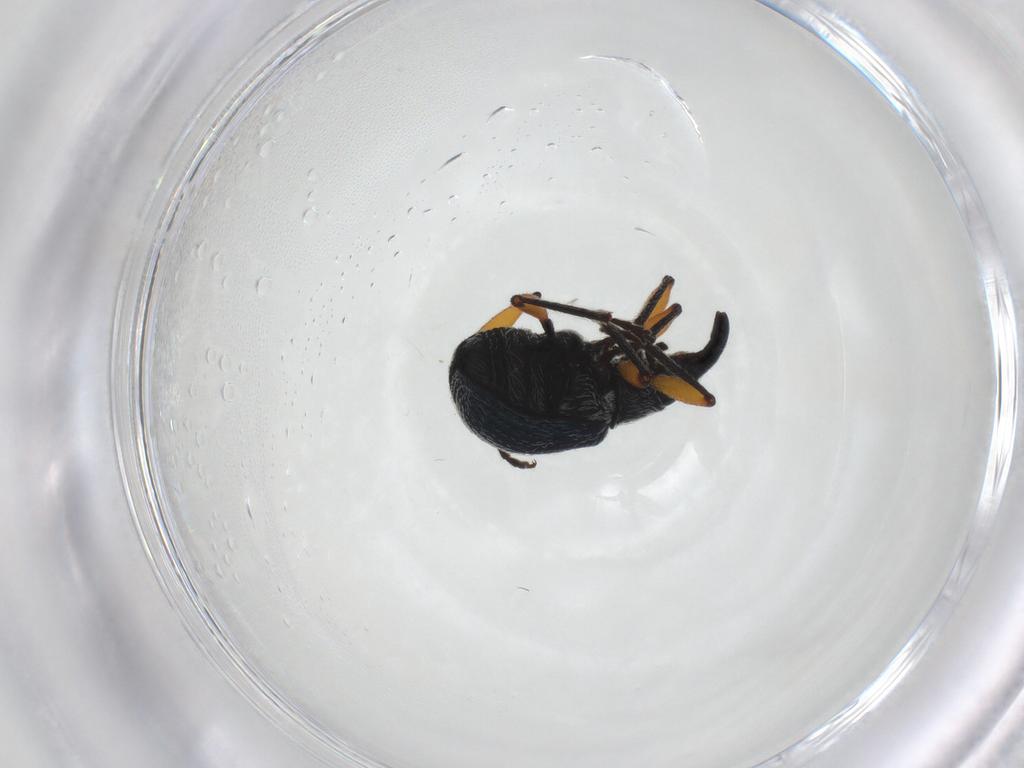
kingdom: Animalia
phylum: Arthropoda
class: Insecta
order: Coleoptera
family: Apionidae
